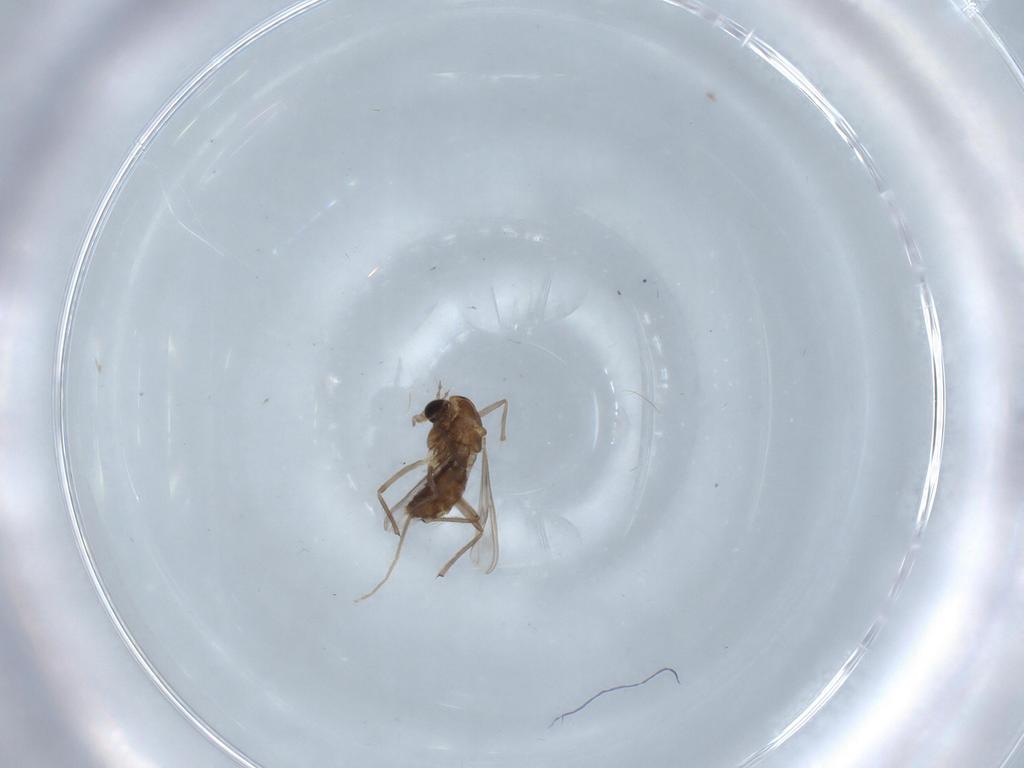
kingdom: Animalia
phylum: Arthropoda
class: Insecta
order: Diptera
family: Chironomidae
